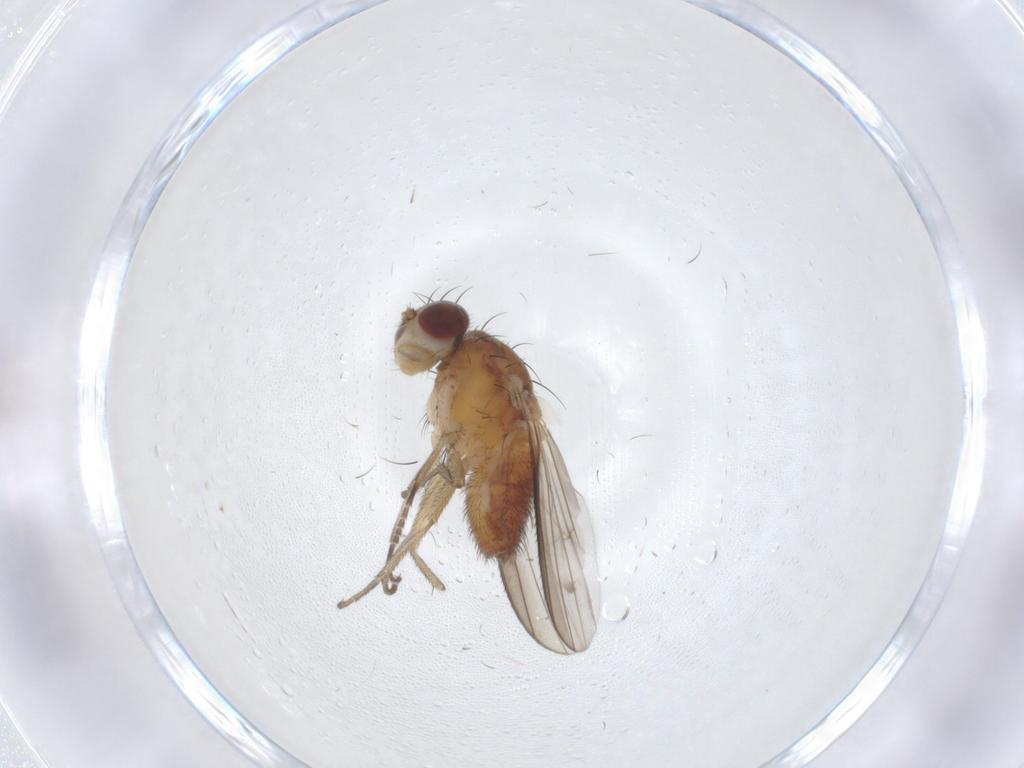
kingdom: Animalia
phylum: Arthropoda
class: Insecta
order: Diptera
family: Heleomyzidae
